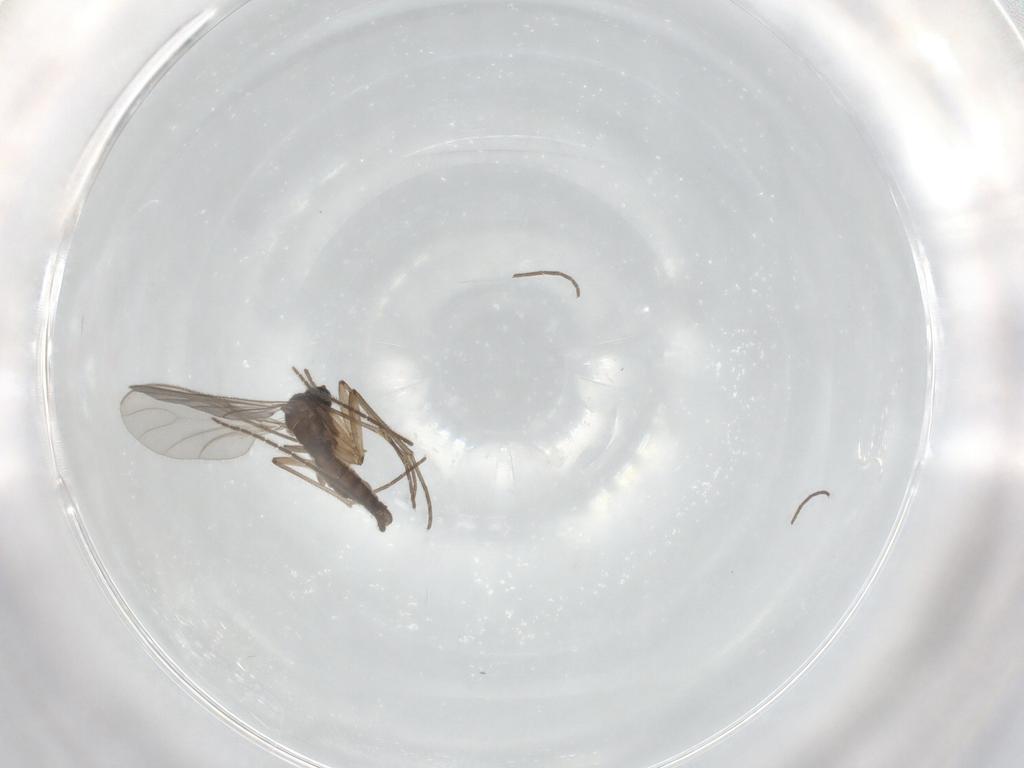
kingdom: Animalia
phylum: Arthropoda
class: Insecta
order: Diptera
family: Sciaridae
